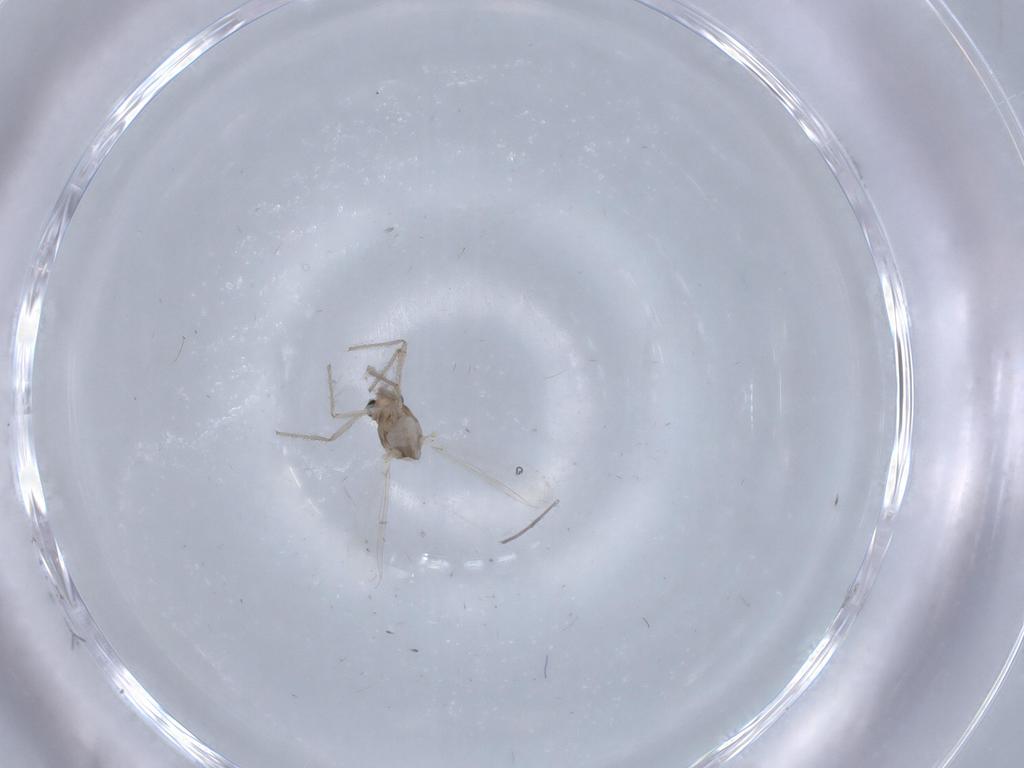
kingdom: Animalia
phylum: Arthropoda
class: Insecta
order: Diptera
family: Chironomidae
